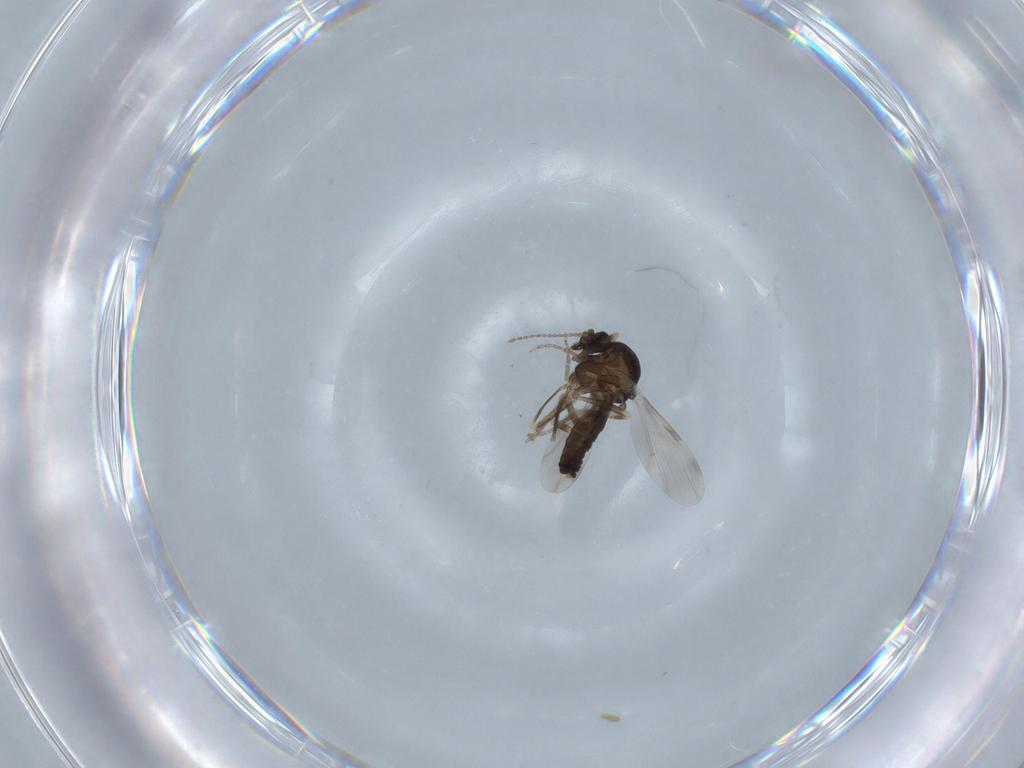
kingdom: Animalia
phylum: Arthropoda
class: Insecta
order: Diptera
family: Ceratopogonidae
